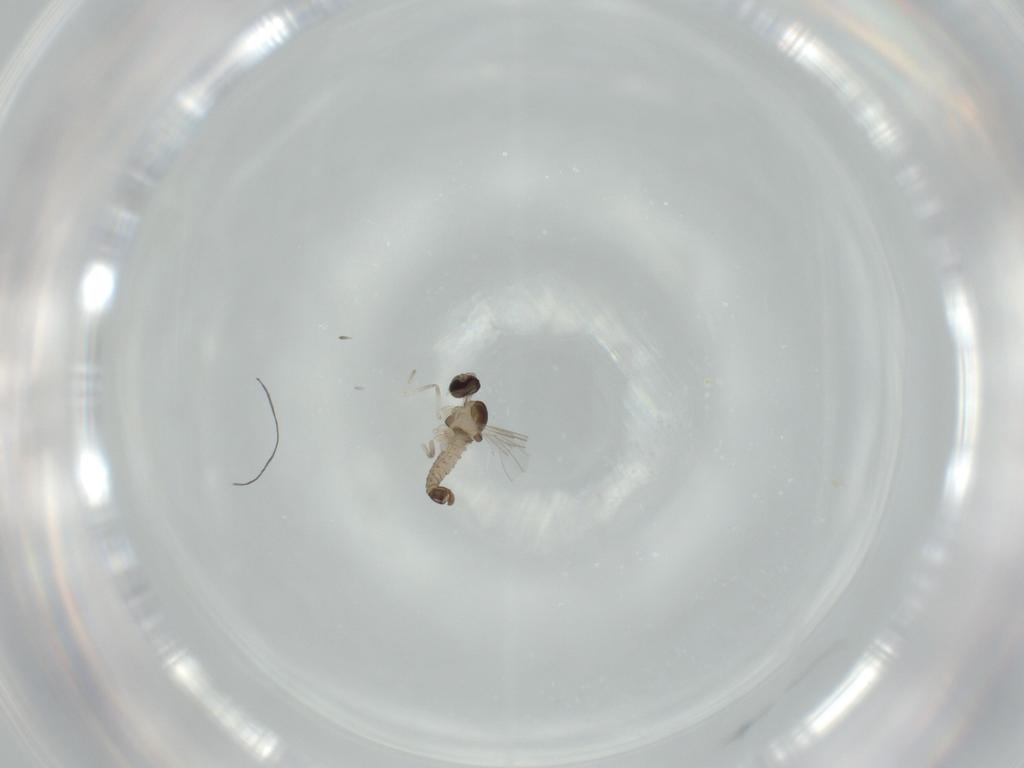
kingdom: Animalia
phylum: Arthropoda
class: Insecta
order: Diptera
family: Cecidomyiidae
